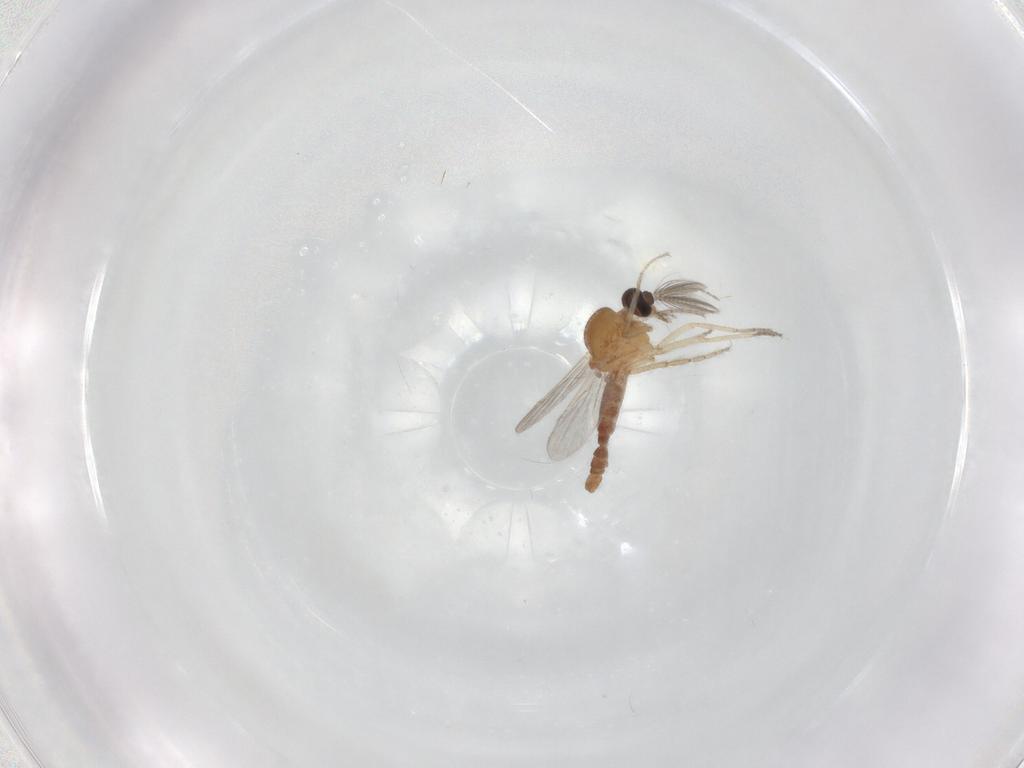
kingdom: Animalia
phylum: Arthropoda
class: Insecta
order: Diptera
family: Ceratopogonidae
